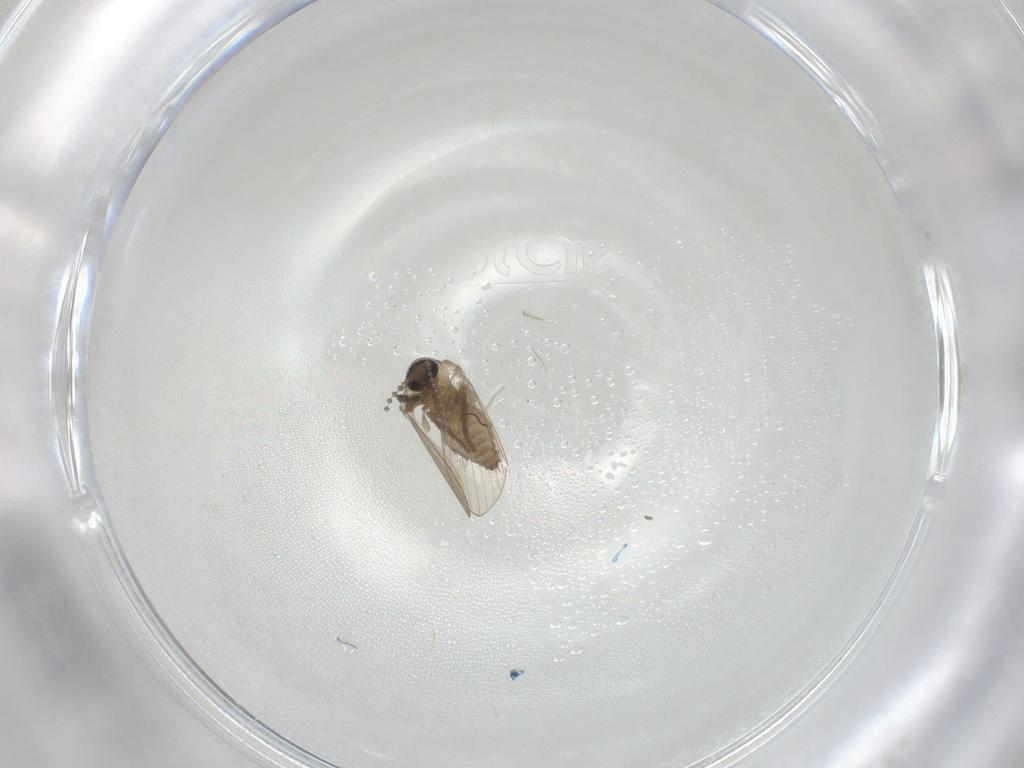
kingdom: Animalia
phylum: Arthropoda
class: Insecta
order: Diptera
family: Psychodidae
